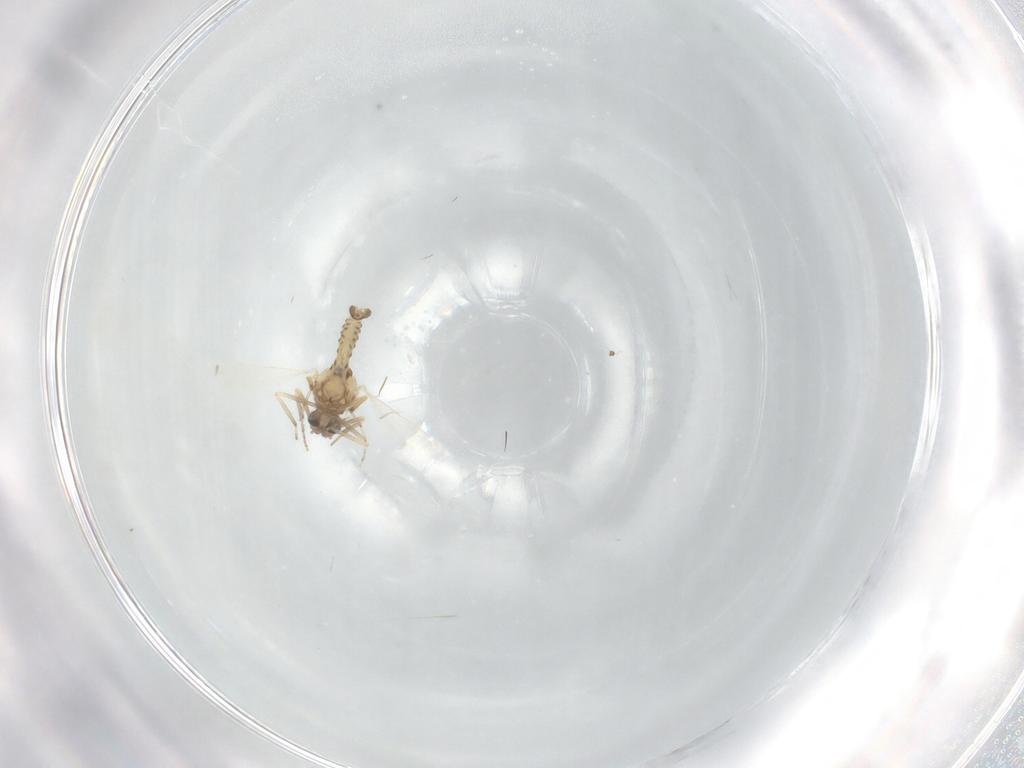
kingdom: Animalia
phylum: Arthropoda
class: Insecta
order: Diptera
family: Ceratopogonidae
